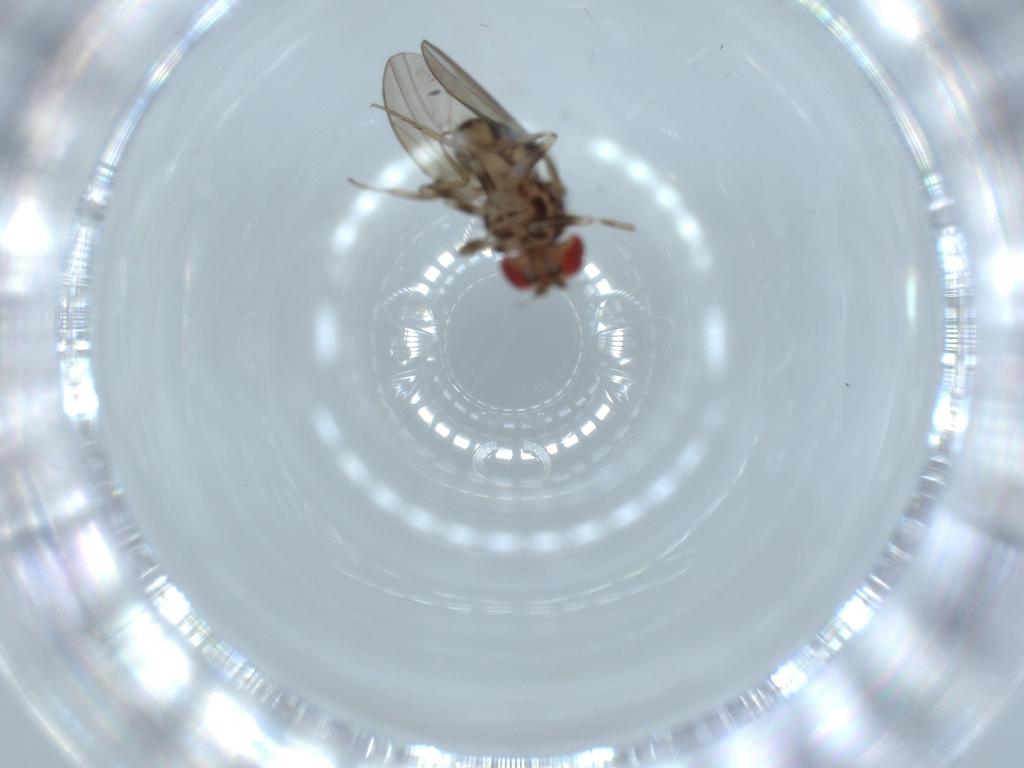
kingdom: Animalia
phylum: Arthropoda
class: Insecta
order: Diptera
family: Drosophilidae
